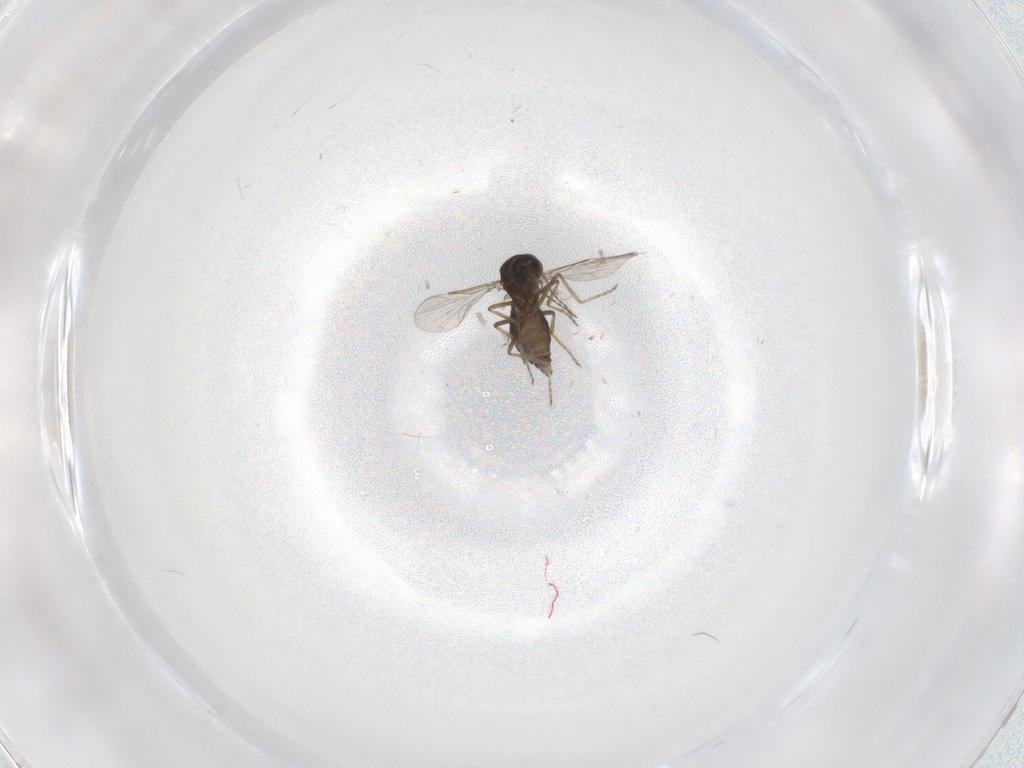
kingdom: Animalia
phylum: Arthropoda
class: Insecta
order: Diptera
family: Ceratopogonidae
